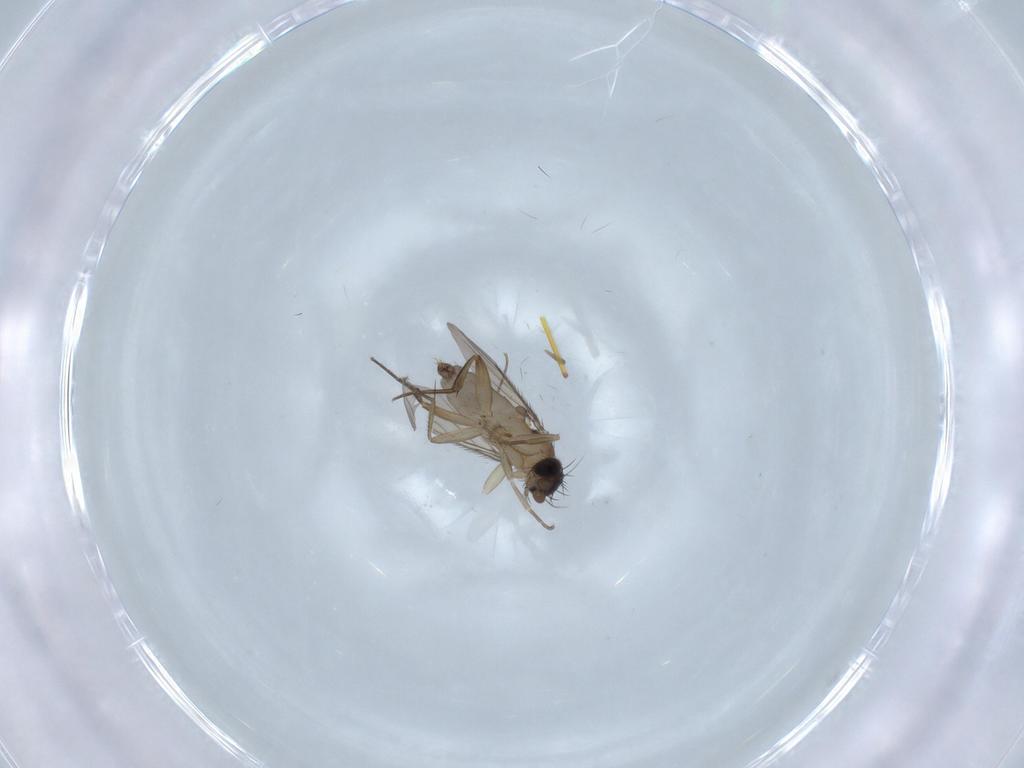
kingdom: Animalia
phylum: Arthropoda
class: Insecta
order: Diptera
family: Phoridae
